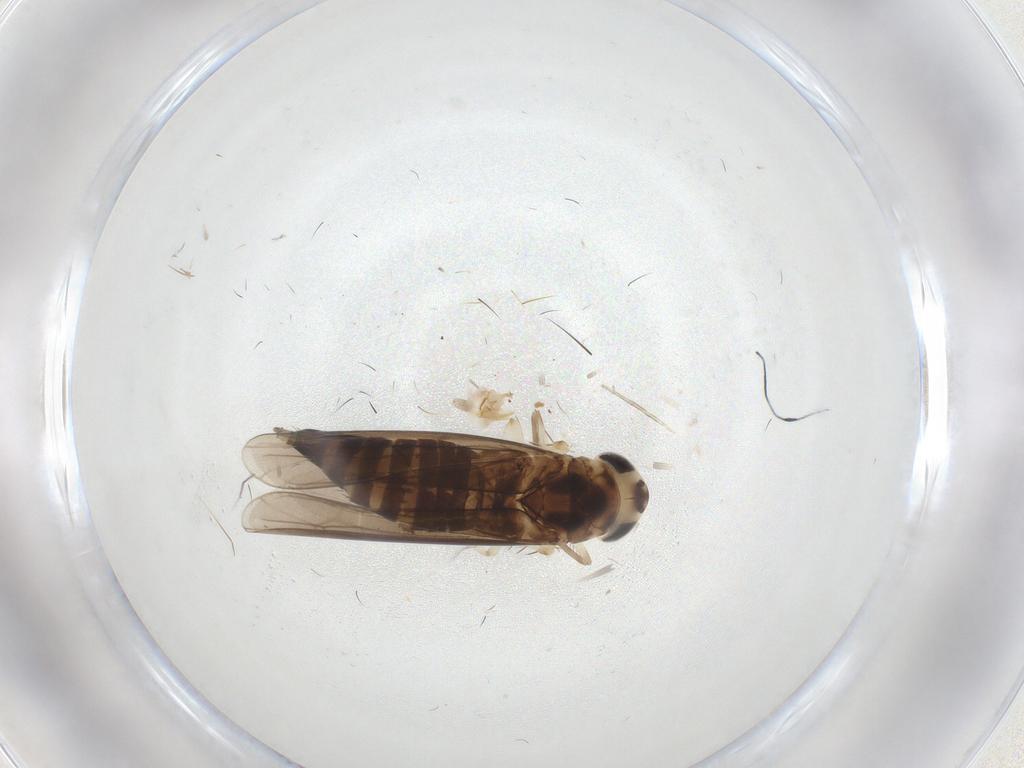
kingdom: Animalia
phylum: Arthropoda
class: Insecta
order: Hemiptera
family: Cicadellidae
